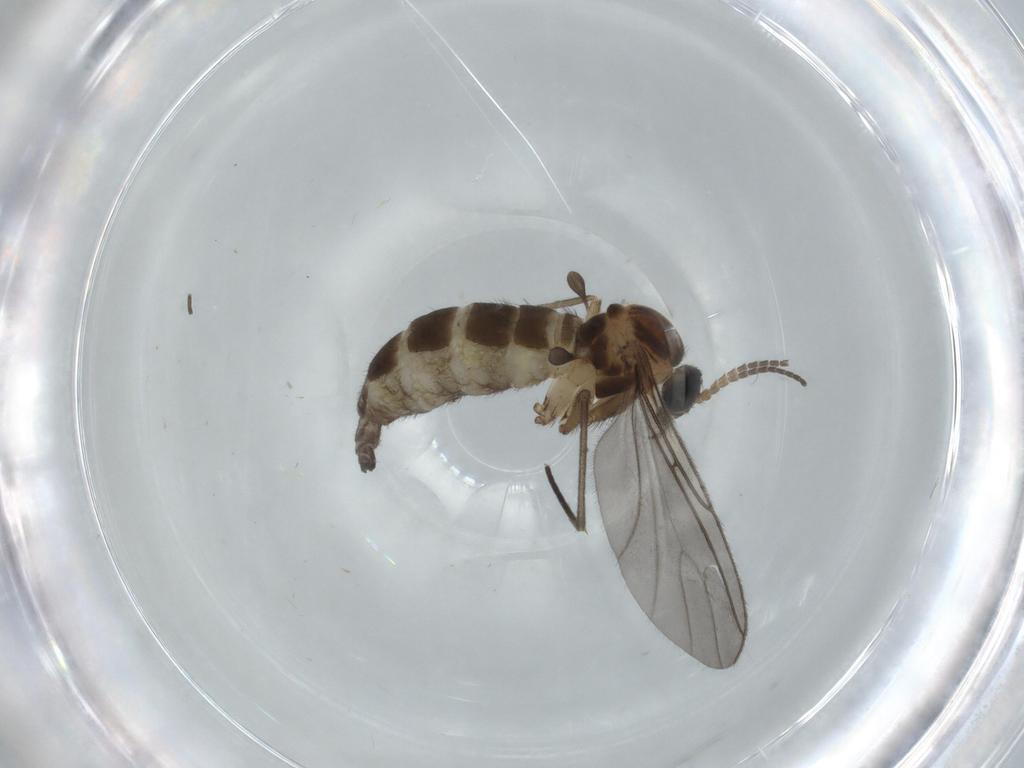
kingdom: Animalia
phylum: Arthropoda
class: Insecta
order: Diptera
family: Sciaridae
